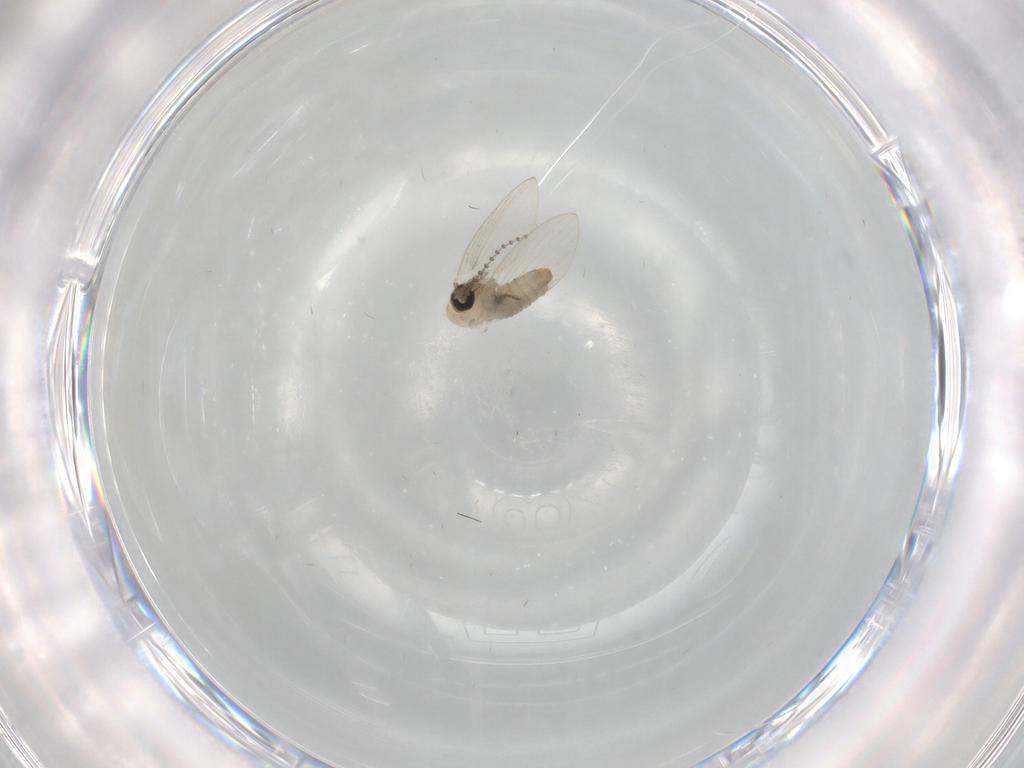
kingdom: Animalia
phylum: Arthropoda
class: Insecta
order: Diptera
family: Psychodidae
